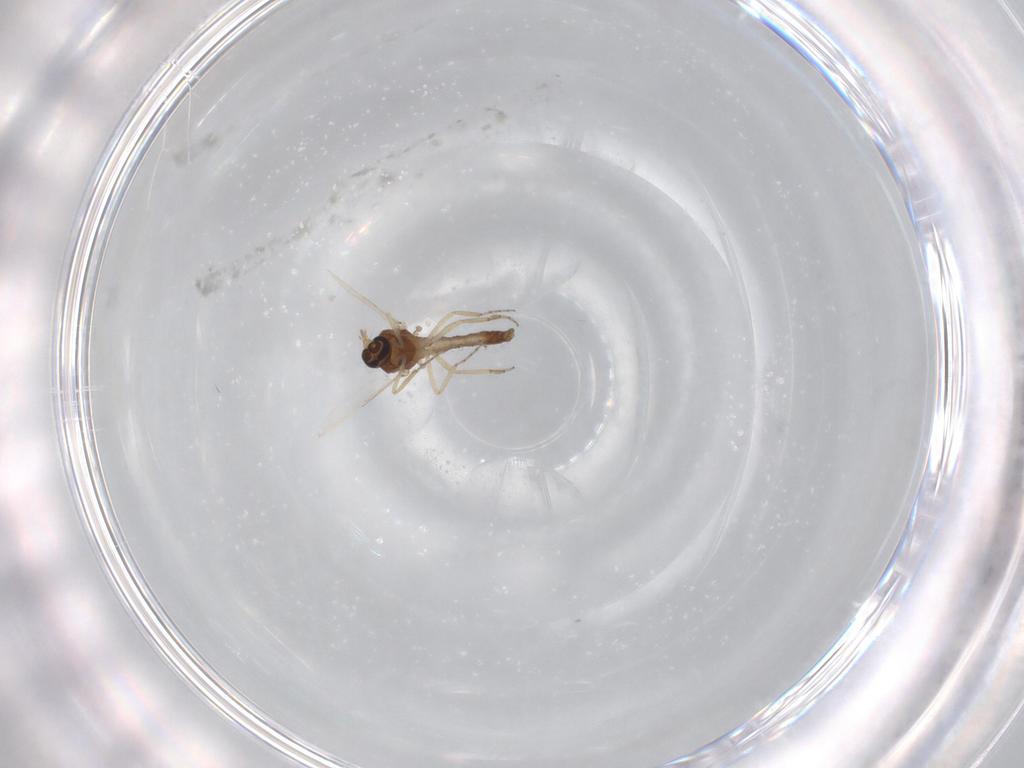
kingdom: Animalia
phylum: Arthropoda
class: Insecta
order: Diptera
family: Ceratopogonidae
